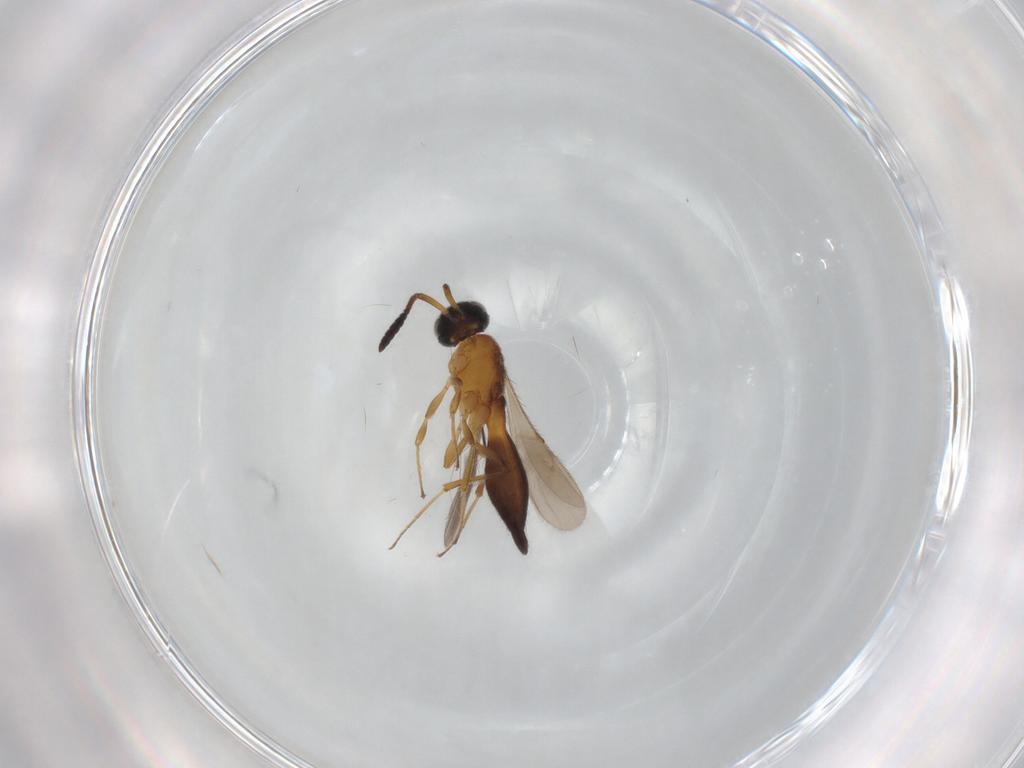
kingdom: Animalia
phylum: Arthropoda
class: Insecta
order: Hymenoptera
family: Scelionidae
